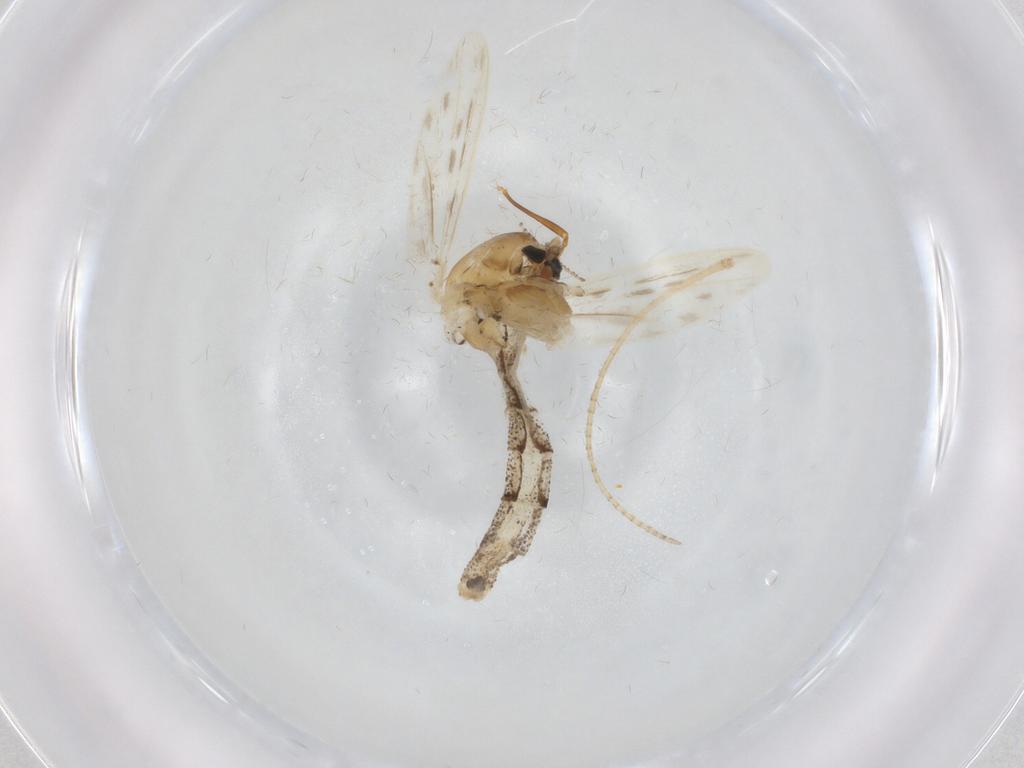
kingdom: Animalia
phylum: Arthropoda
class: Insecta
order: Diptera
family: Chaoboridae
